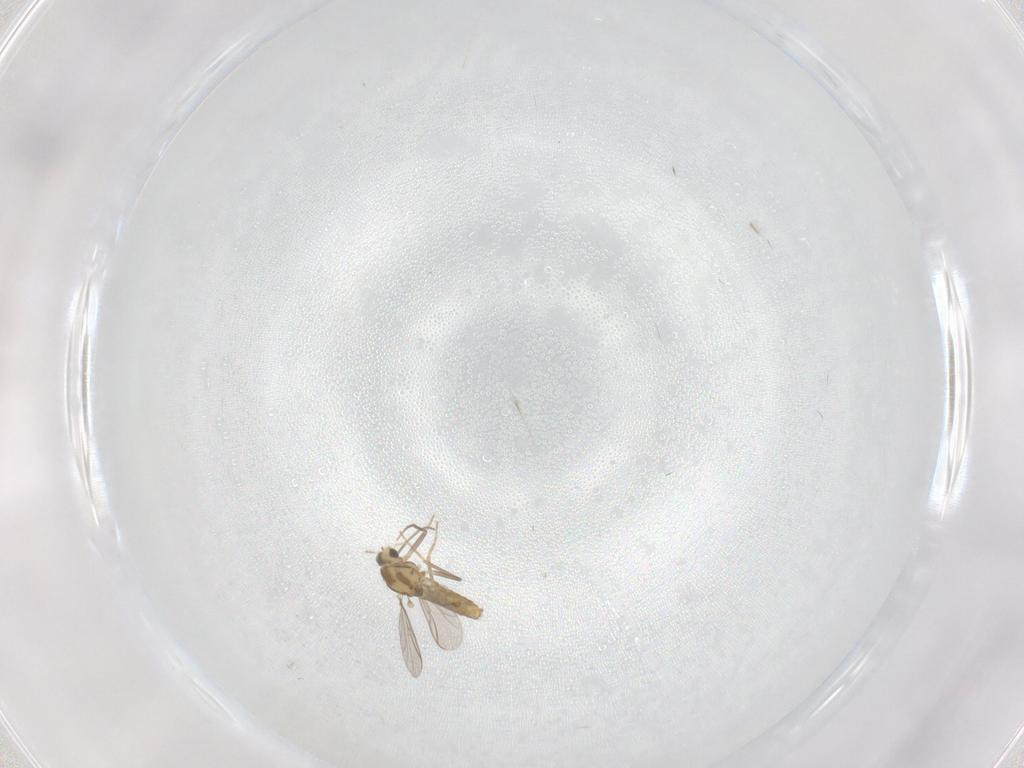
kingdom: Animalia
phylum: Arthropoda
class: Insecta
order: Diptera
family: Chironomidae
